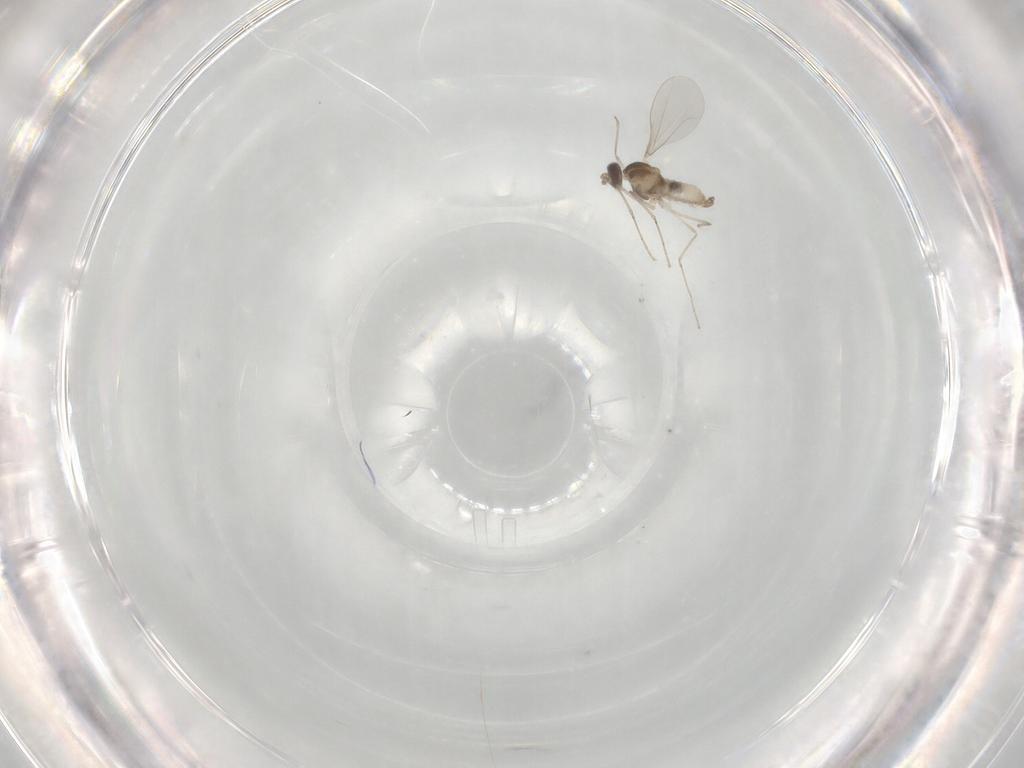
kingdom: Animalia
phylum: Arthropoda
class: Insecta
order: Diptera
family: Cecidomyiidae
